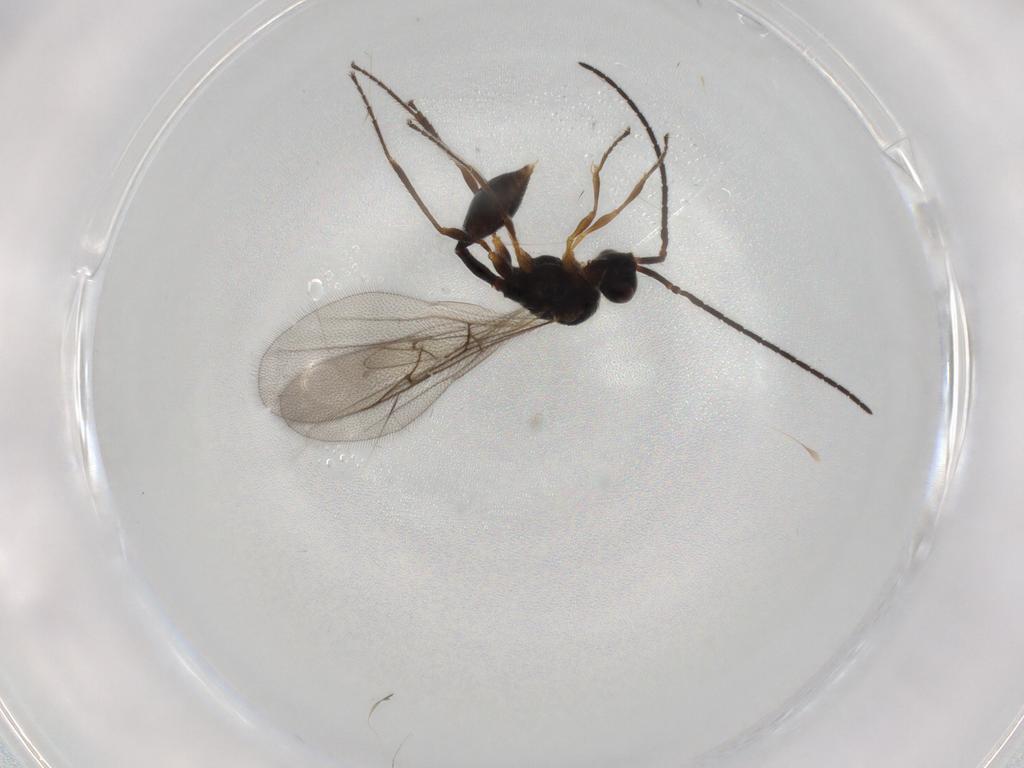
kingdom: Animalia
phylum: Arthropoda
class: Insecta
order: Hymenoptera
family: Diapriidae
